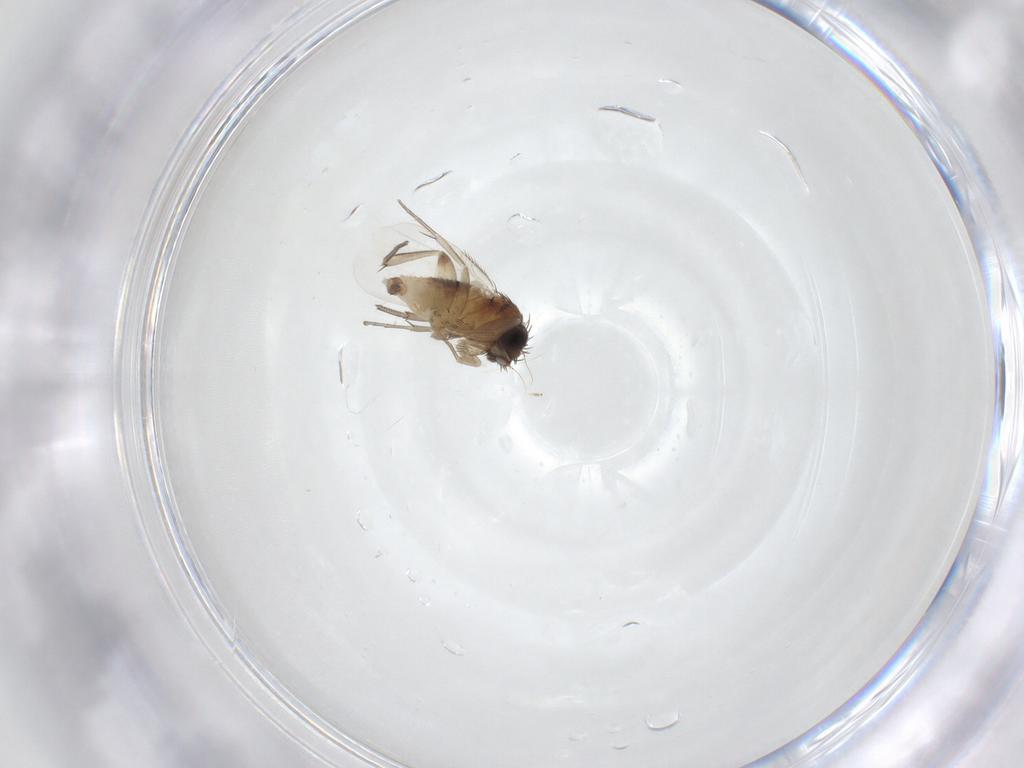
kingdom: Animalia
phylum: Arthropoda
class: Insecta
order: Diptera
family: Phoridae
